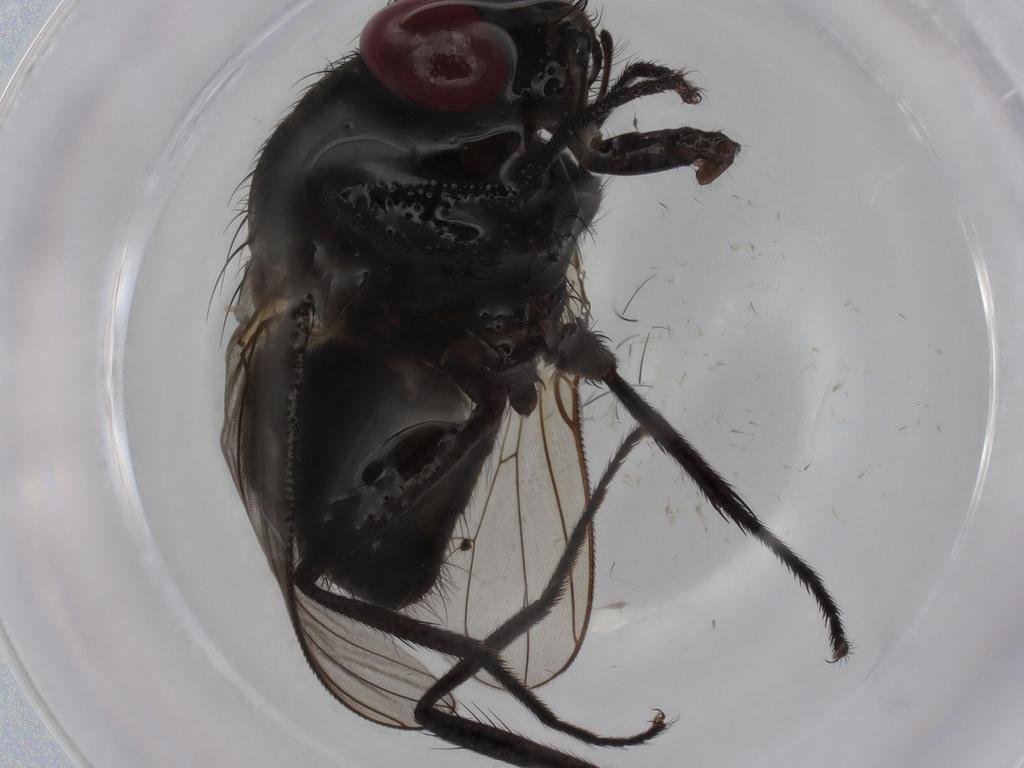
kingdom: Animalia
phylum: Arthropoda
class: Insecta
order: Diptera
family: Muscidae
